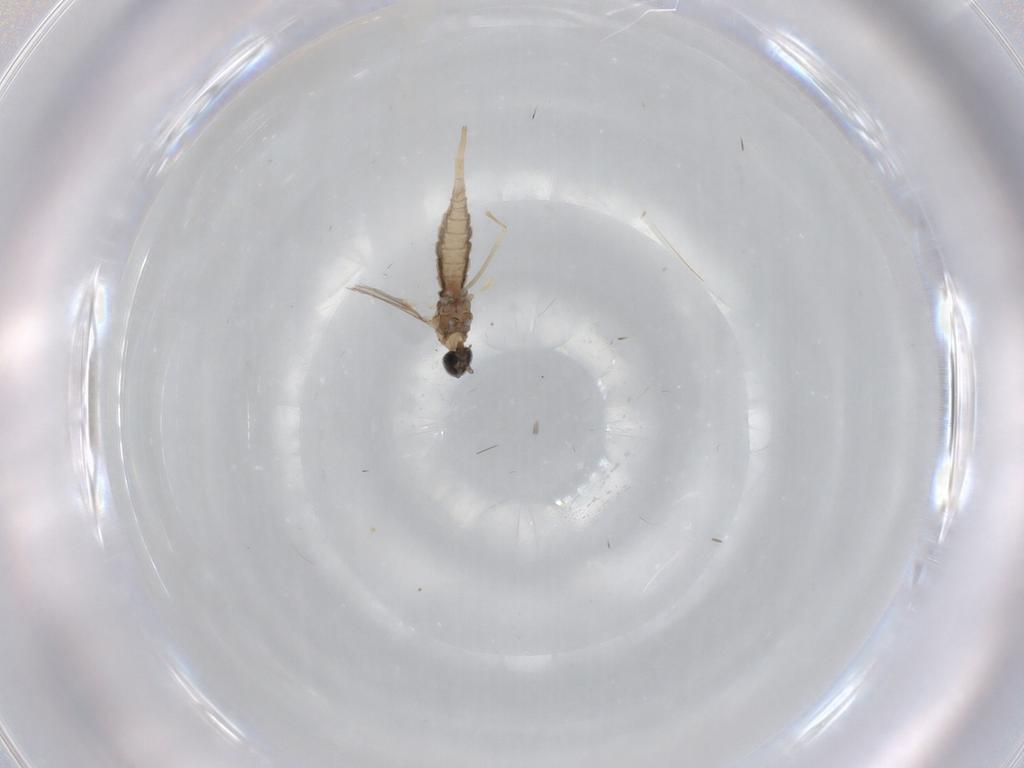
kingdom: Animalia
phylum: Arthropoda
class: Insecta
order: Diptera
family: Cecidomyiidae
